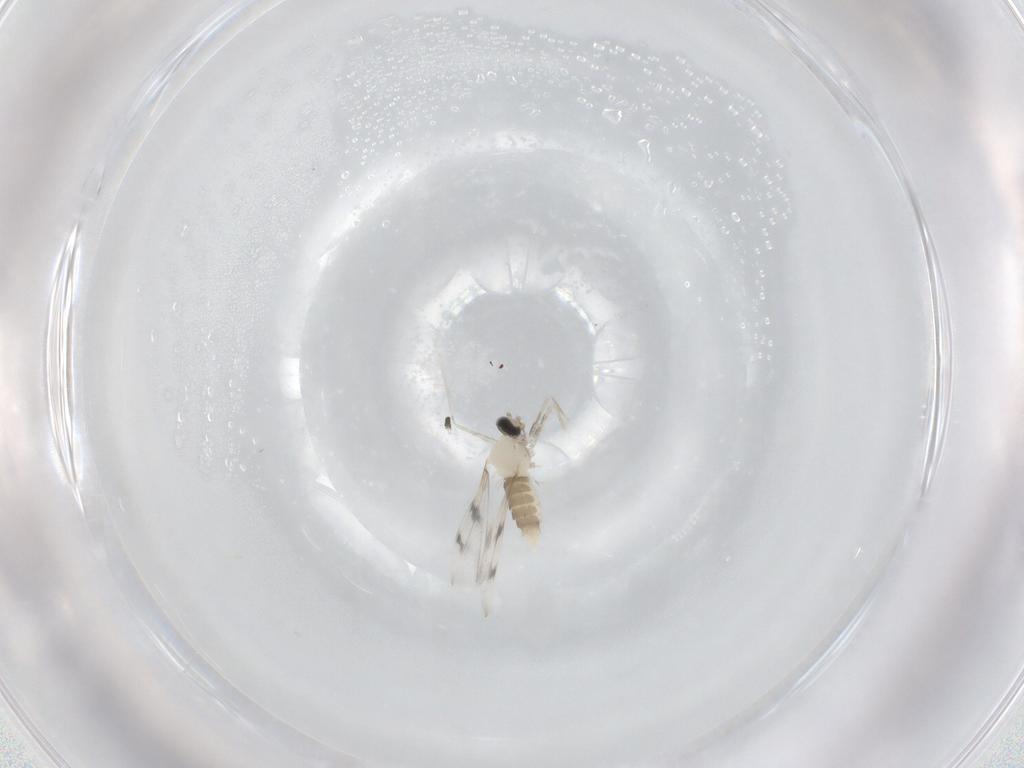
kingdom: Animalia
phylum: Arthropoda
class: Insecta
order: Diptera
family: Cecidomyiidae
